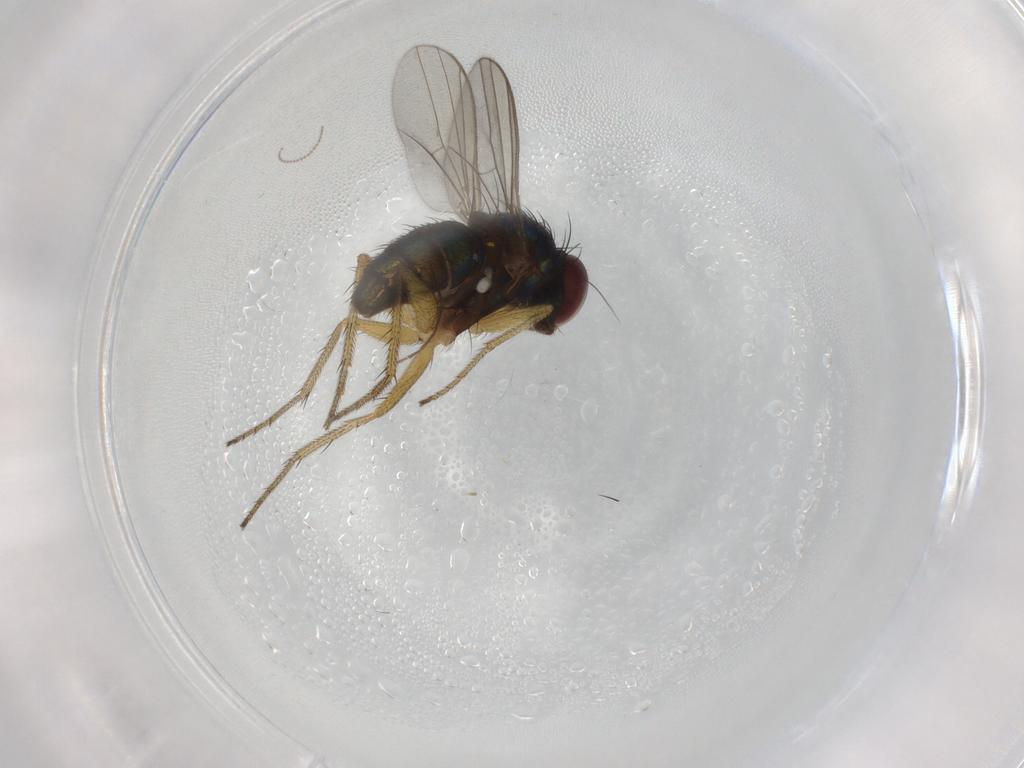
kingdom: Animalia
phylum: Arthropoda
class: Insecta
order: Diptera
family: Dolichopodidae
